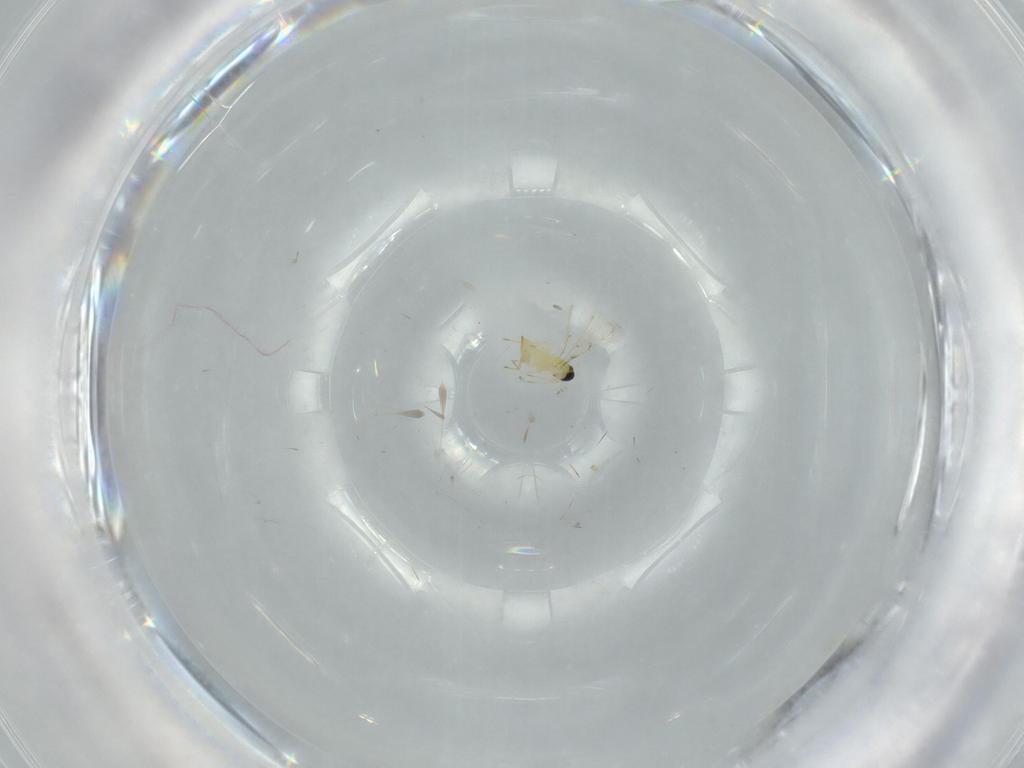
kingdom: Animalia
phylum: Arthropoda
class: Insecta
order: Hymenoptera
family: Trichogrammatidae
